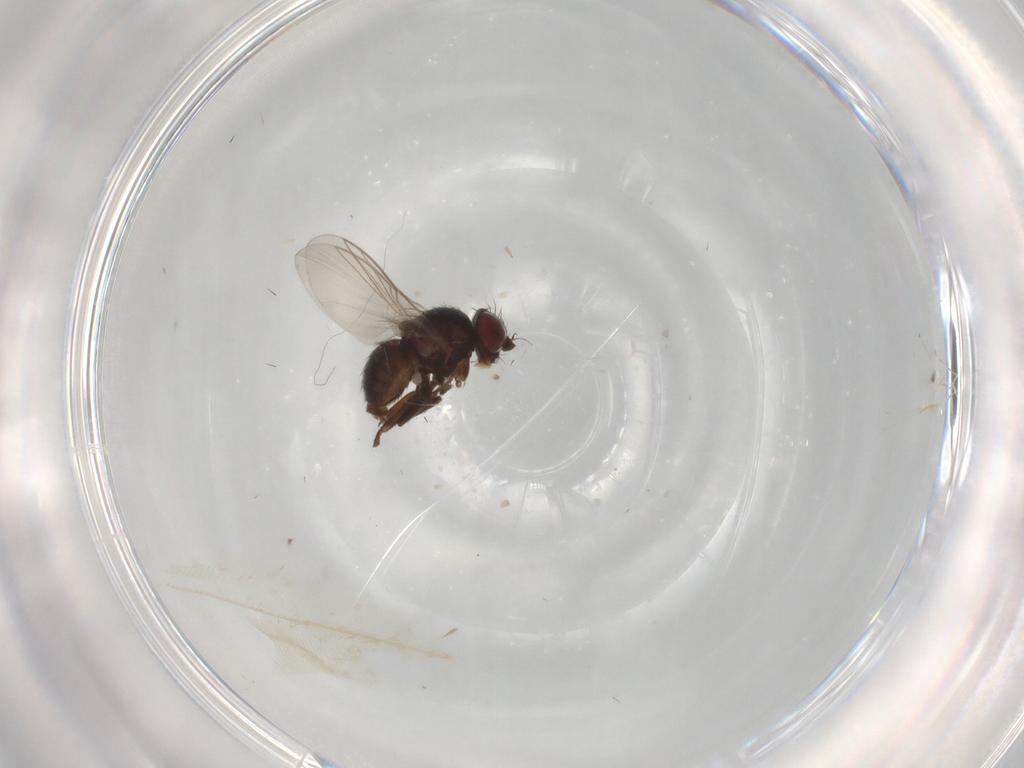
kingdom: Animalia
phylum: Arthropoda
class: Insecta
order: Diptera
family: Dolichopodidae
